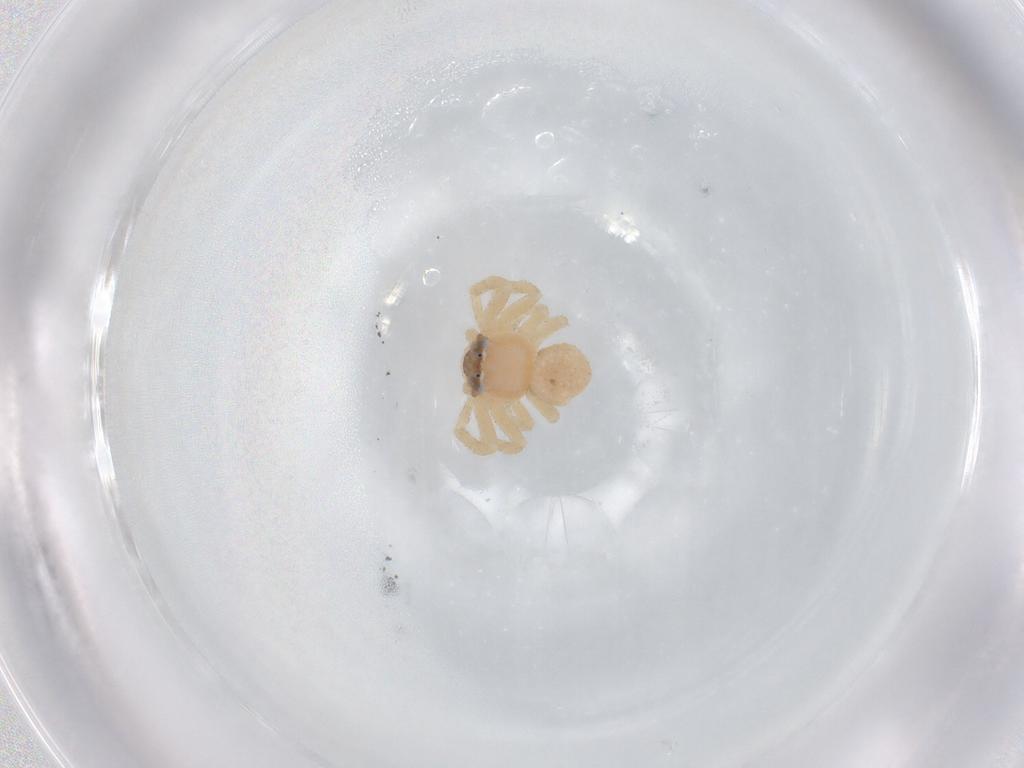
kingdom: Animalia
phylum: Arthropoda
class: Arachnida
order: Araneae
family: Thomisidae
